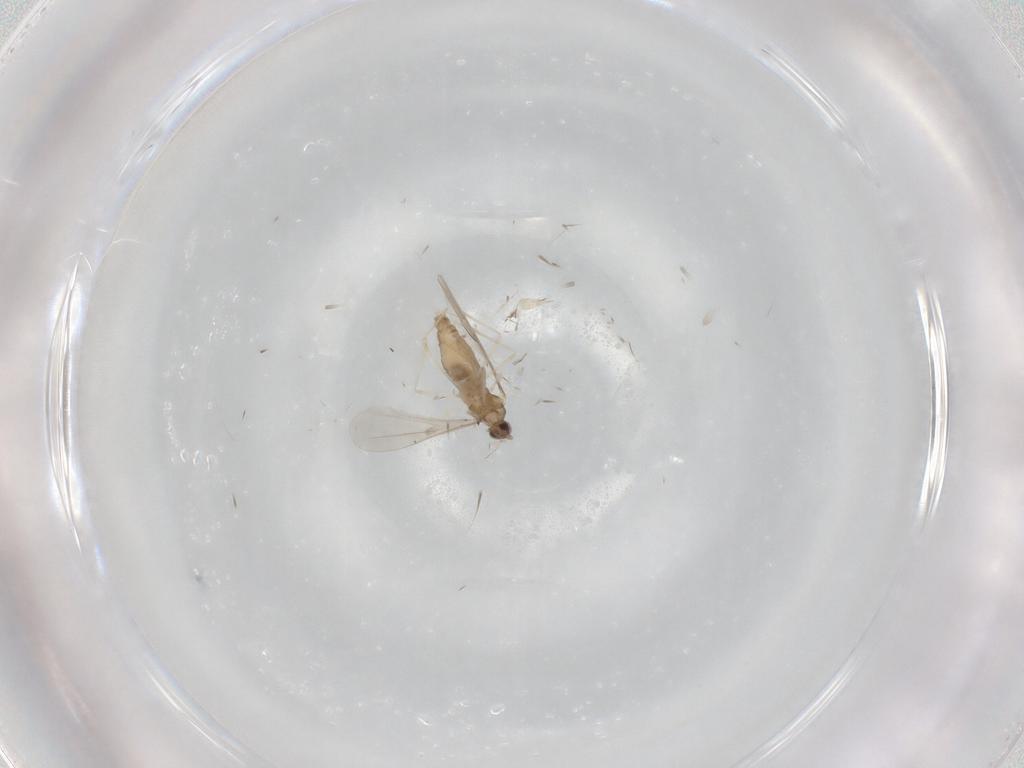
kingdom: Animalia
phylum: Arthropoda
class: Insecta
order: Diptera
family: Cecidomyiidae
